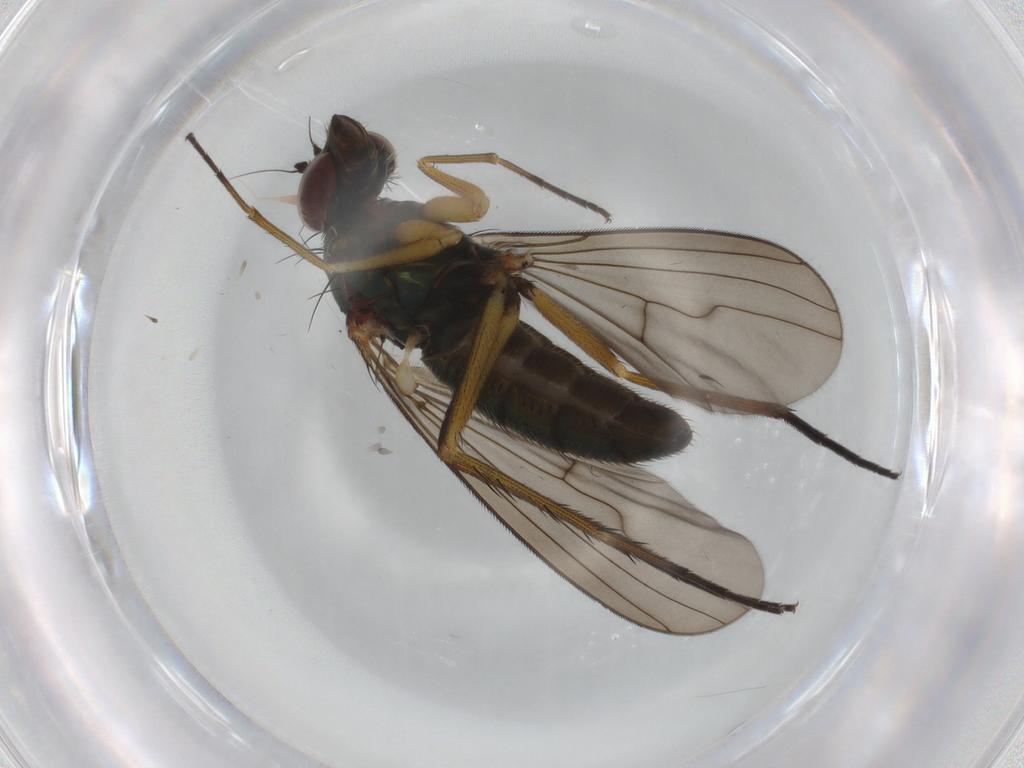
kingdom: Animalia
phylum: Arthropoda
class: Insecta
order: Diptera
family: Dolichopodidae
